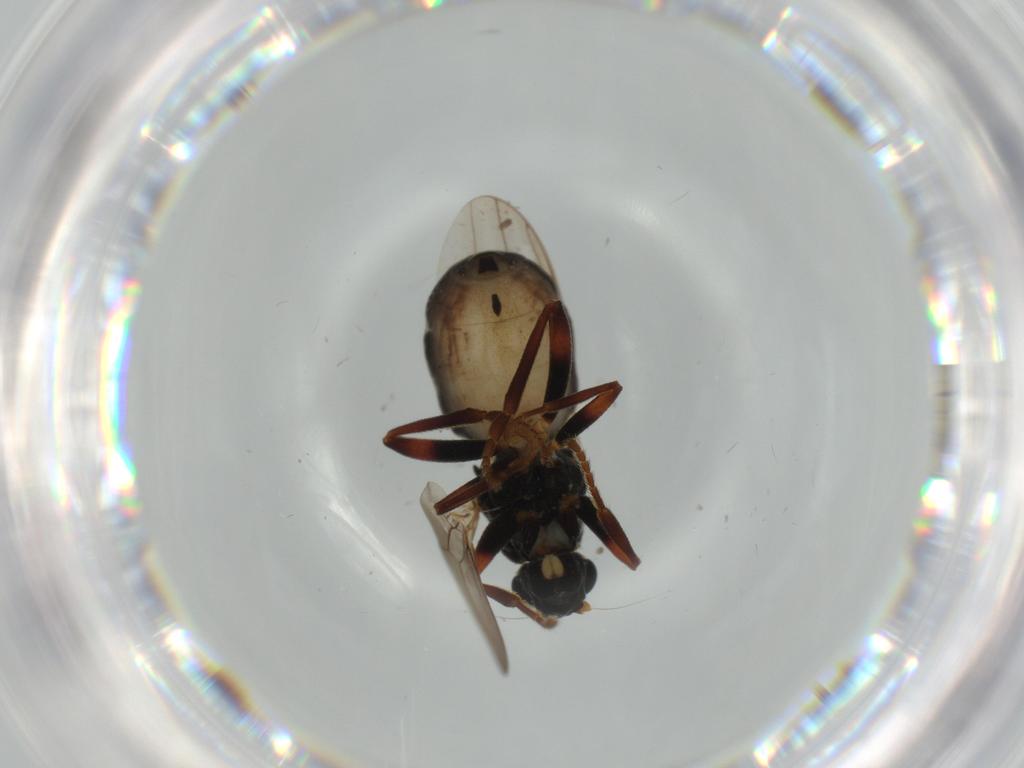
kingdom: Animalia
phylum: Arthropoda
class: Insecta
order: Diptera
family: Sphaeroceridae
